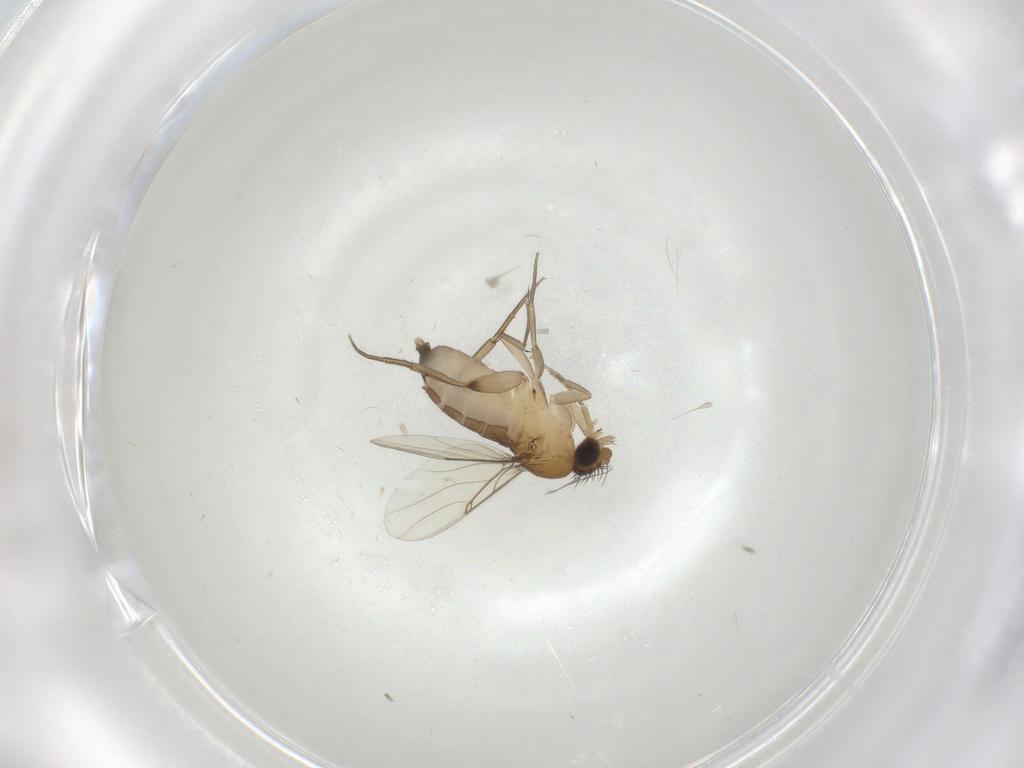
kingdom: Animalia
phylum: Arthropoda
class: Insecta
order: Diptera
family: Phoridae
